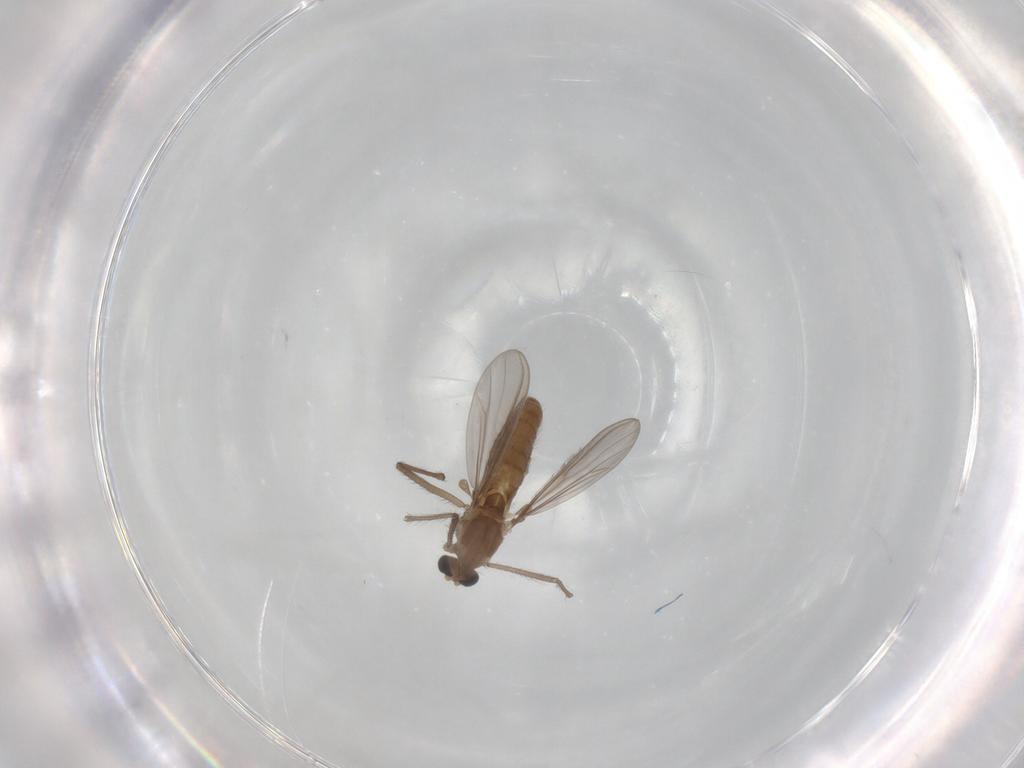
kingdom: Animalia
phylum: Arthropoda
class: Insecta
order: Diptera
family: Chironomidae
